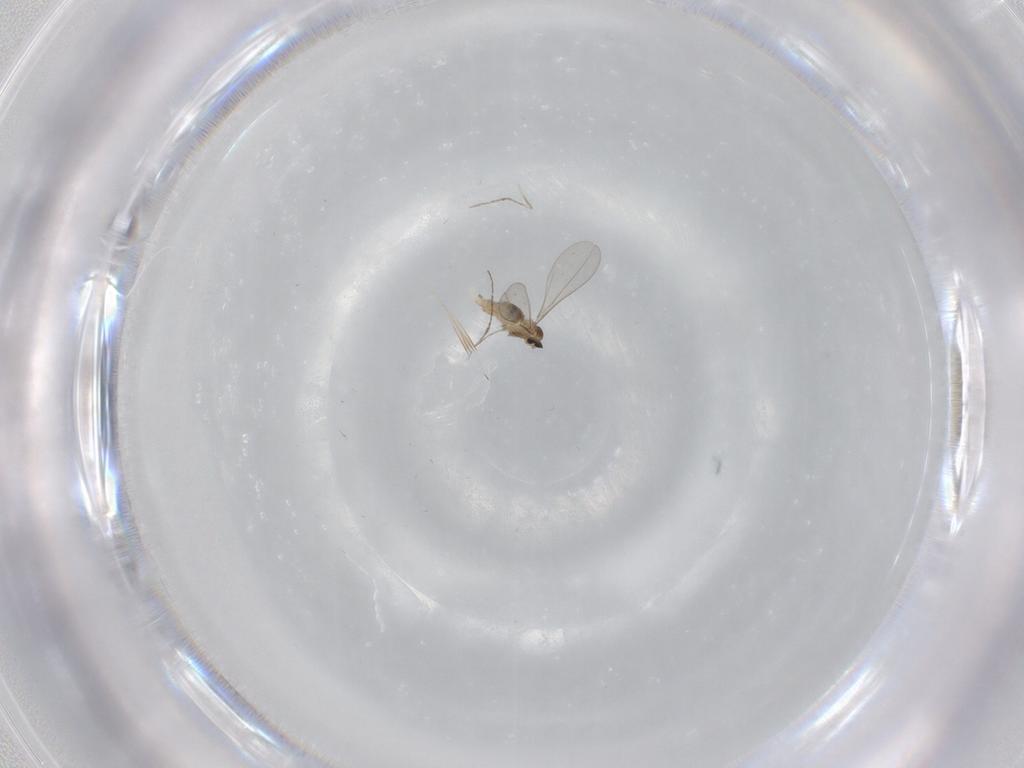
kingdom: Animalia
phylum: Arthropoda
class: Insecta
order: Diptera
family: Cecidomyiidae
